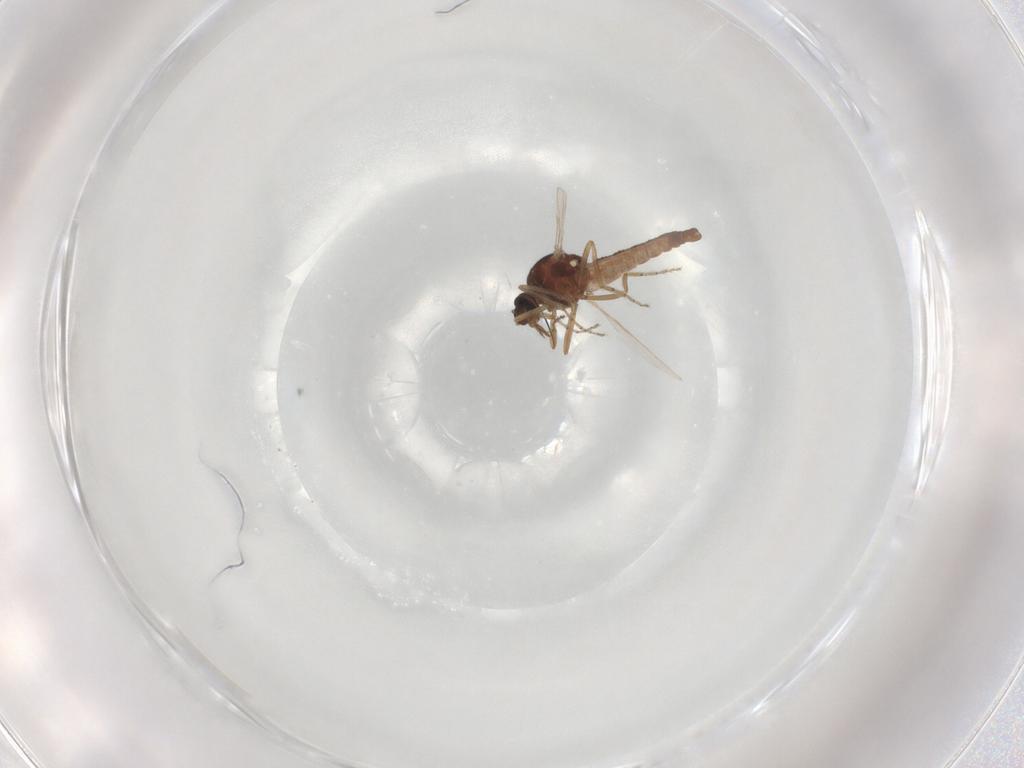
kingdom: Animalia
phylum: Arthropoda
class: Insecta
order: Diptera
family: Ceratopogonidae
